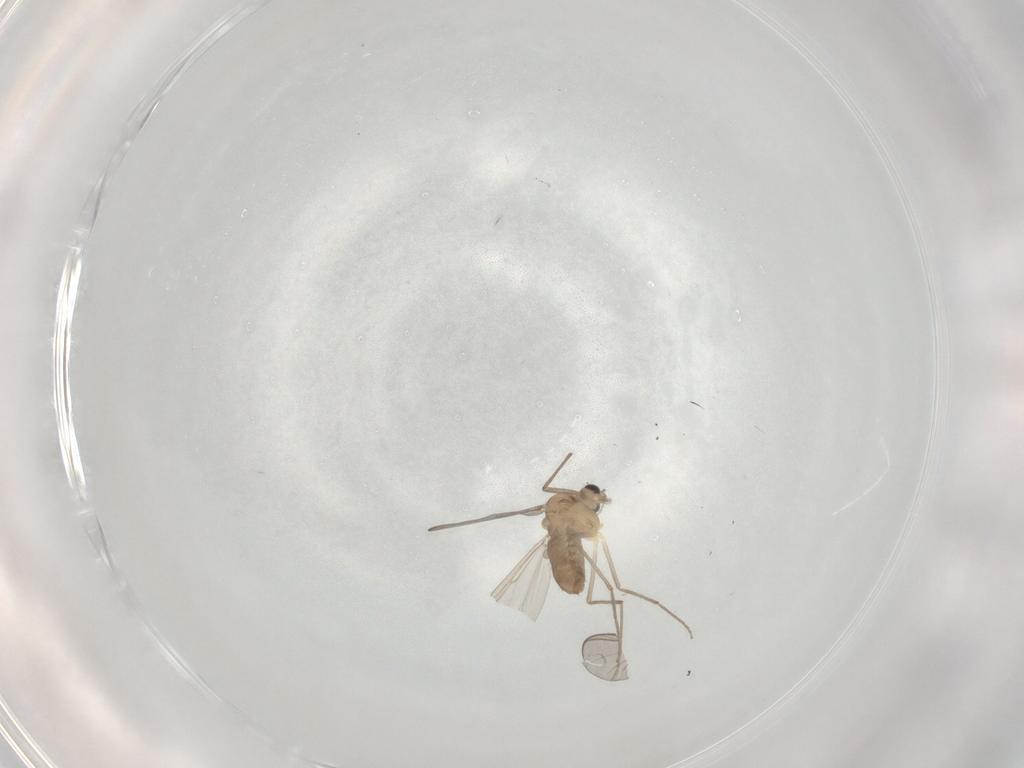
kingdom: Animalia
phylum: Arthropoda
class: Insecta
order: Diptera
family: Chironomidae
